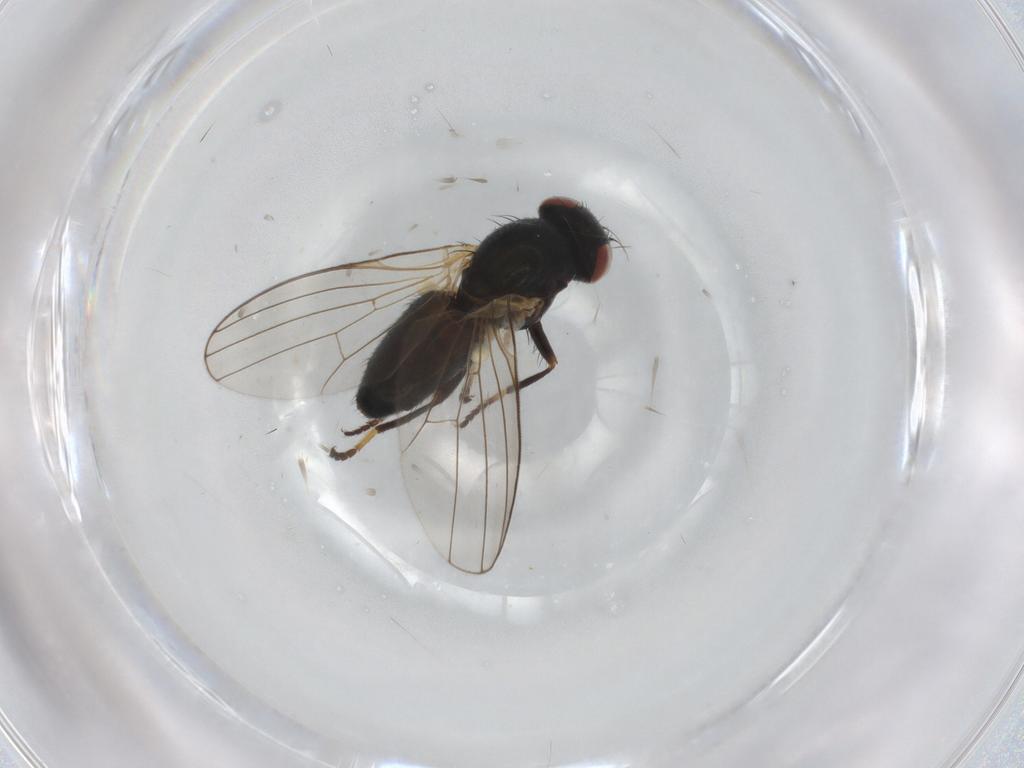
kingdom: Animalia
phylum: Arthropoda
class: Insecta
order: Diptera
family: Chamaemyiidae
